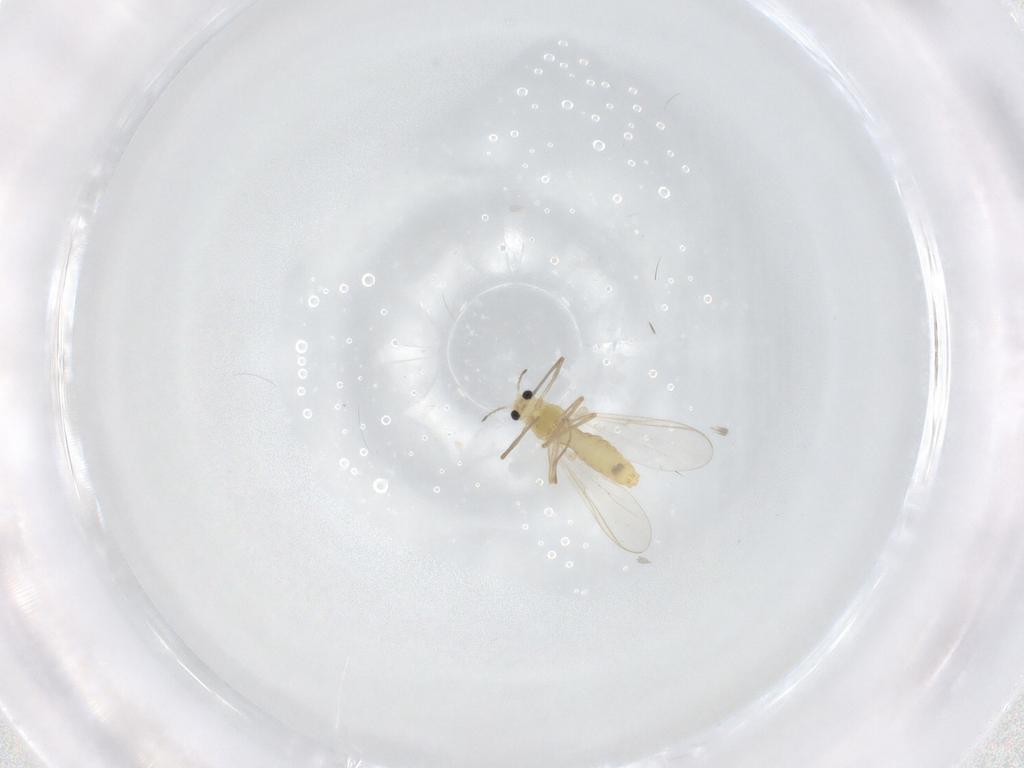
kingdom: Animalia
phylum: Arthropoda
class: Insecta
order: Diptera
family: Chironomidae
